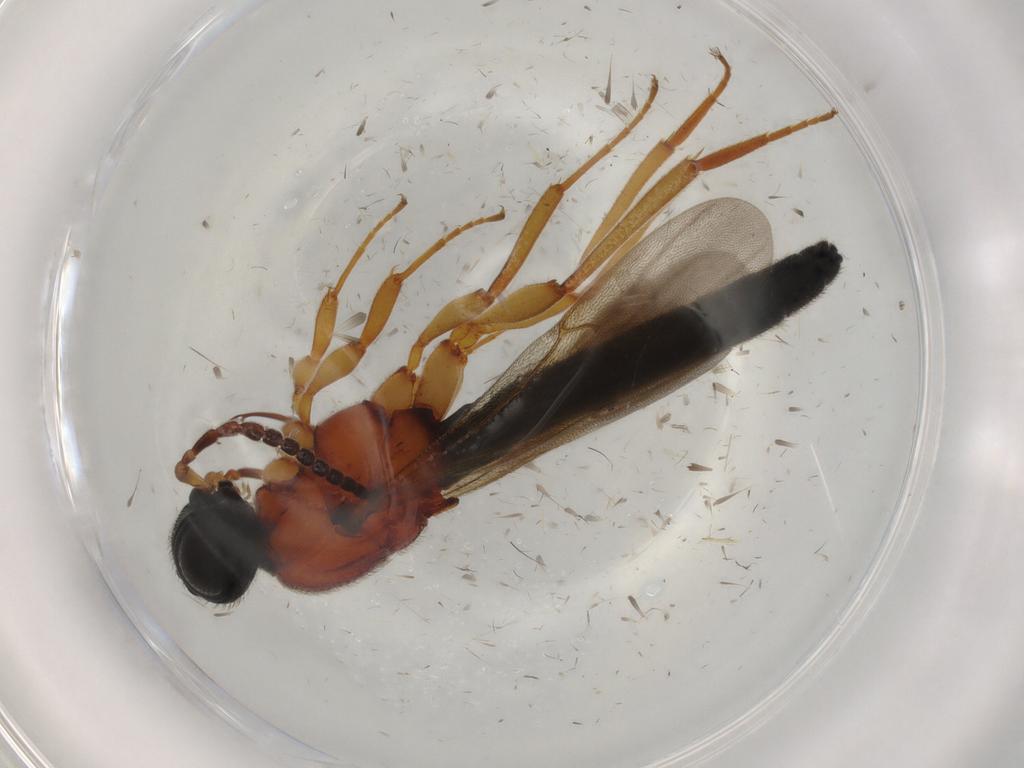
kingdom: Animalia
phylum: Arthropoda
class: Insecta
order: Hymenoptera
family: Scelionidae
